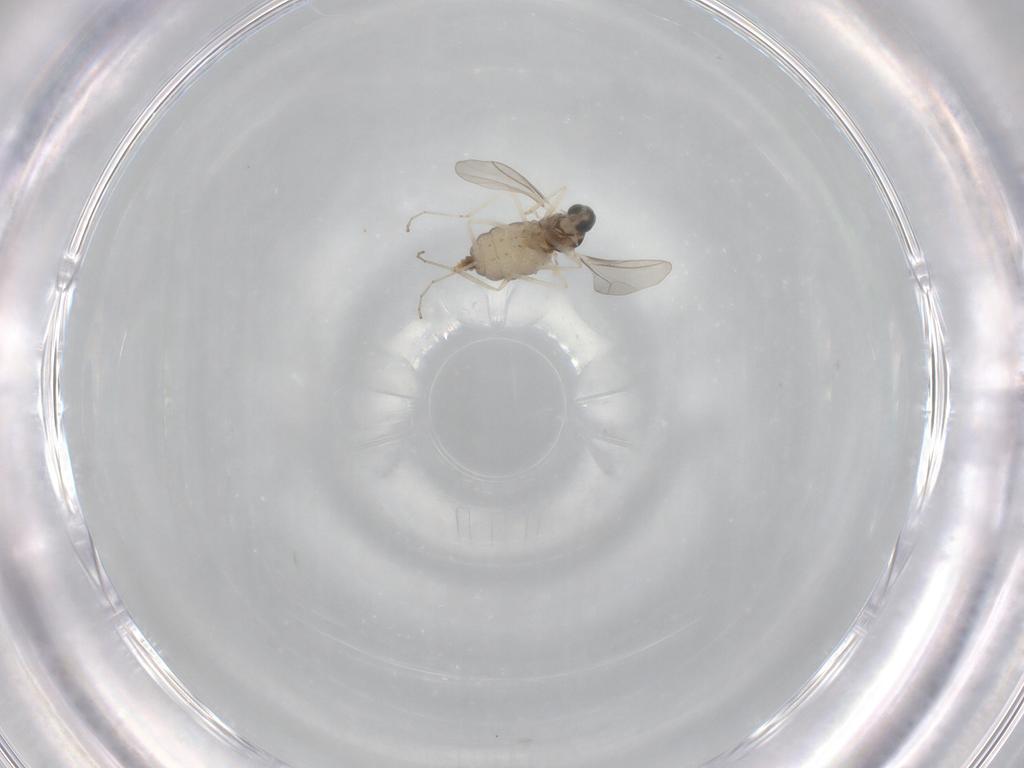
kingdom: Animalia
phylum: Arthropoda
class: Insecta
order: Diptera
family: Cecidomyiidae
